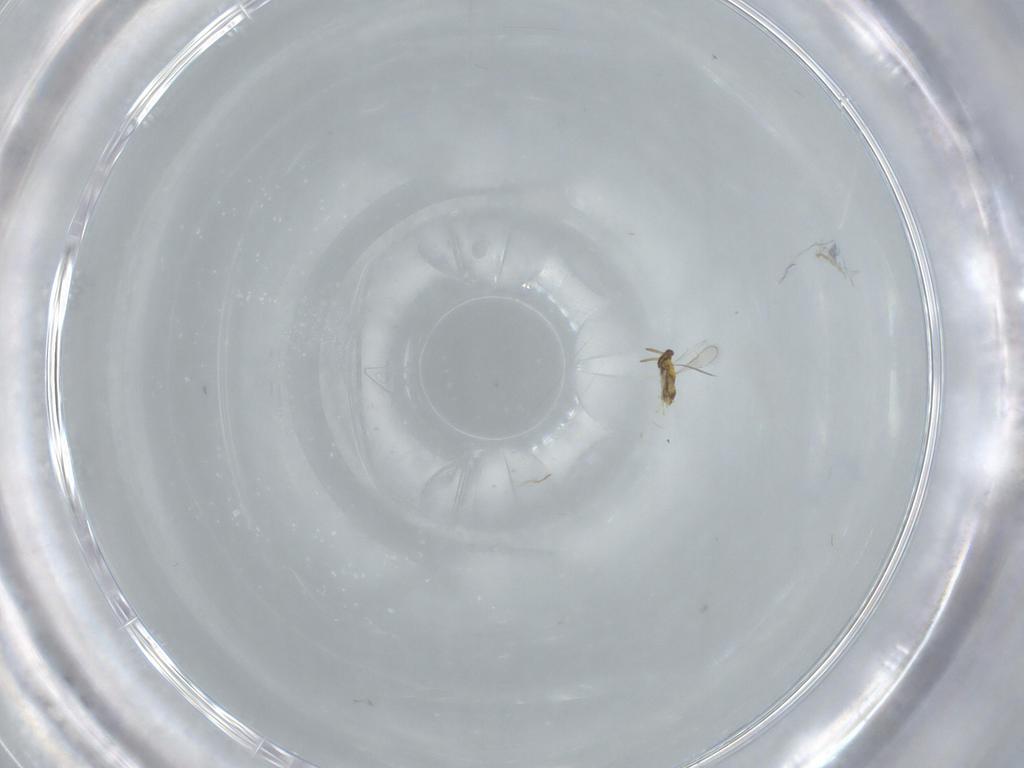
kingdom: Animalia
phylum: Arthropoda
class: Insecta
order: Hymenoptera
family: Aphelinidae
